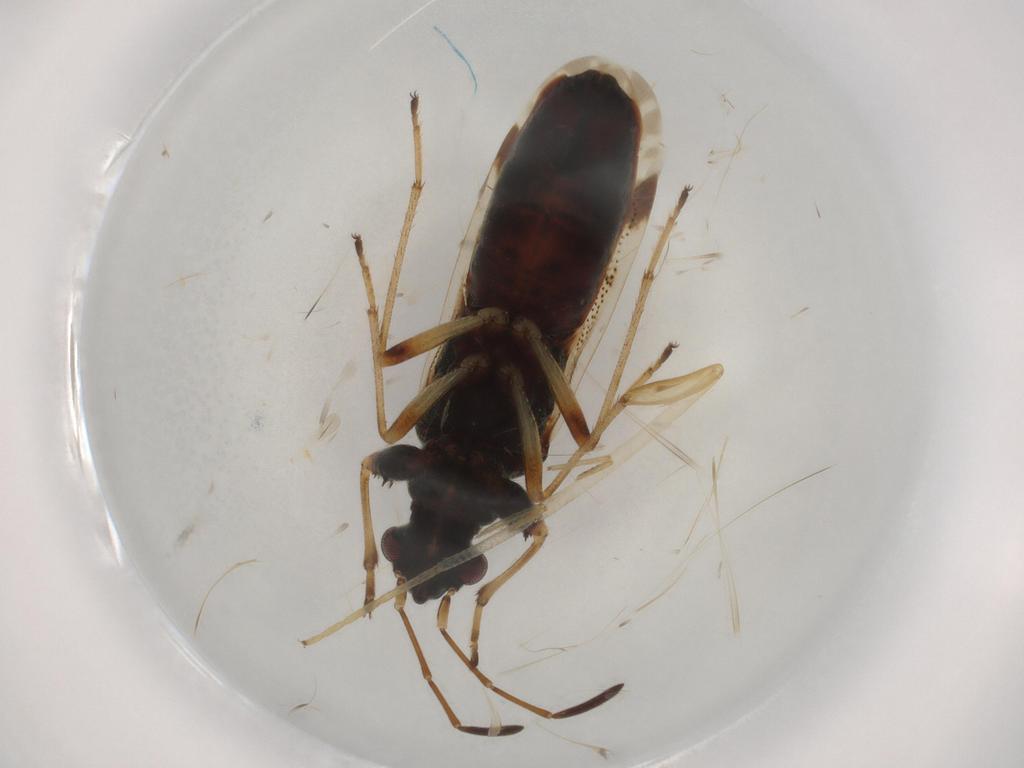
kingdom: Animalia
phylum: Arthropoda
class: Insecta
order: Hemiptera
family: Rhyparochromidae
